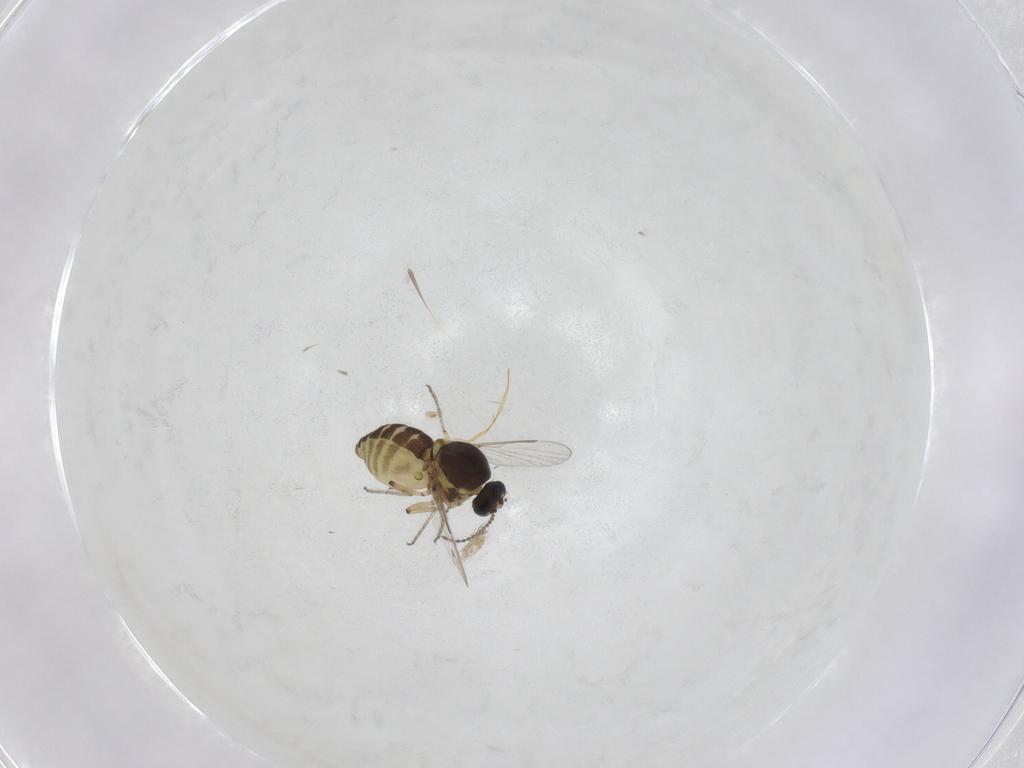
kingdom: Animalia
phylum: Arthropoda
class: Insecta
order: Diptera
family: Ceratopogonidae
